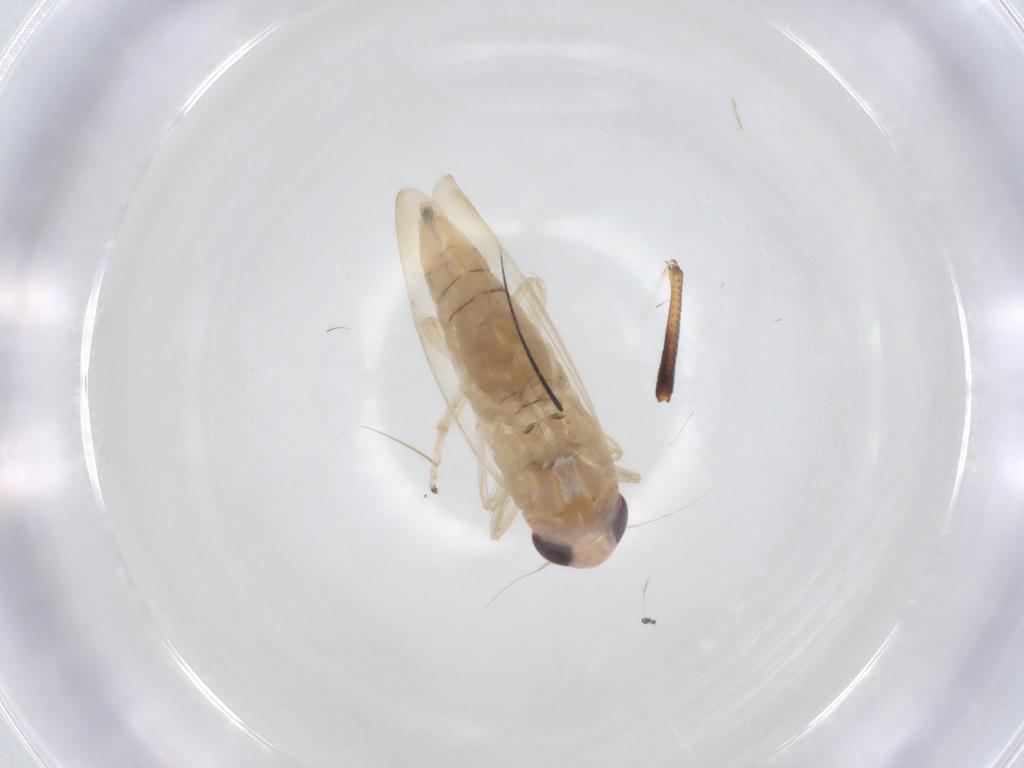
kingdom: Animalia
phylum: Arthropoda
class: Insecta
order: Hemiptera
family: Cicadellidae
